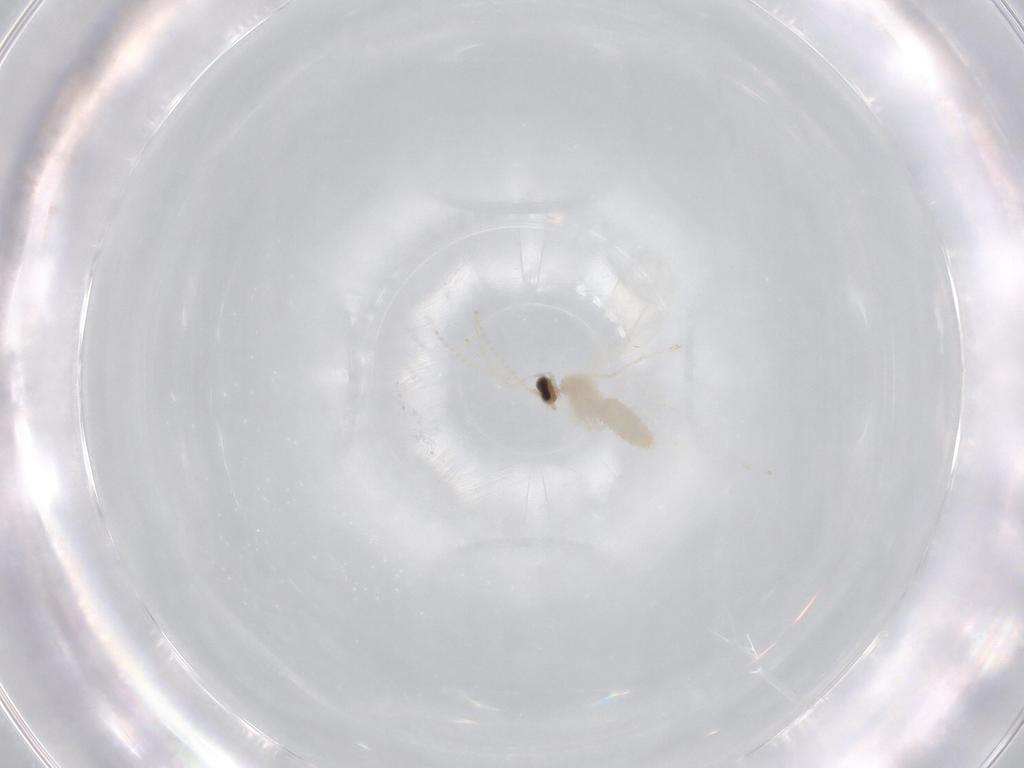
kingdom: Animalia
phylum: Arthropoda
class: Insecta
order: Diptera
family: Cecidomyiidae
